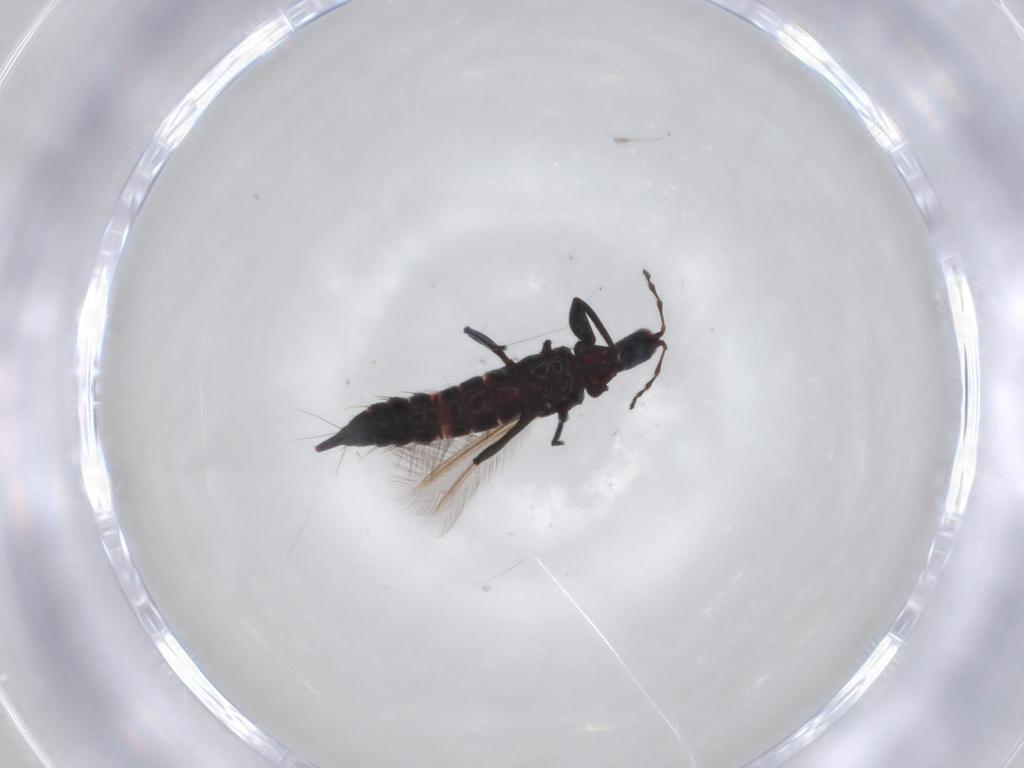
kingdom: Animalia
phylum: Arthropoda
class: Insecta
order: Thysanoptera
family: Phlaeothripidae
